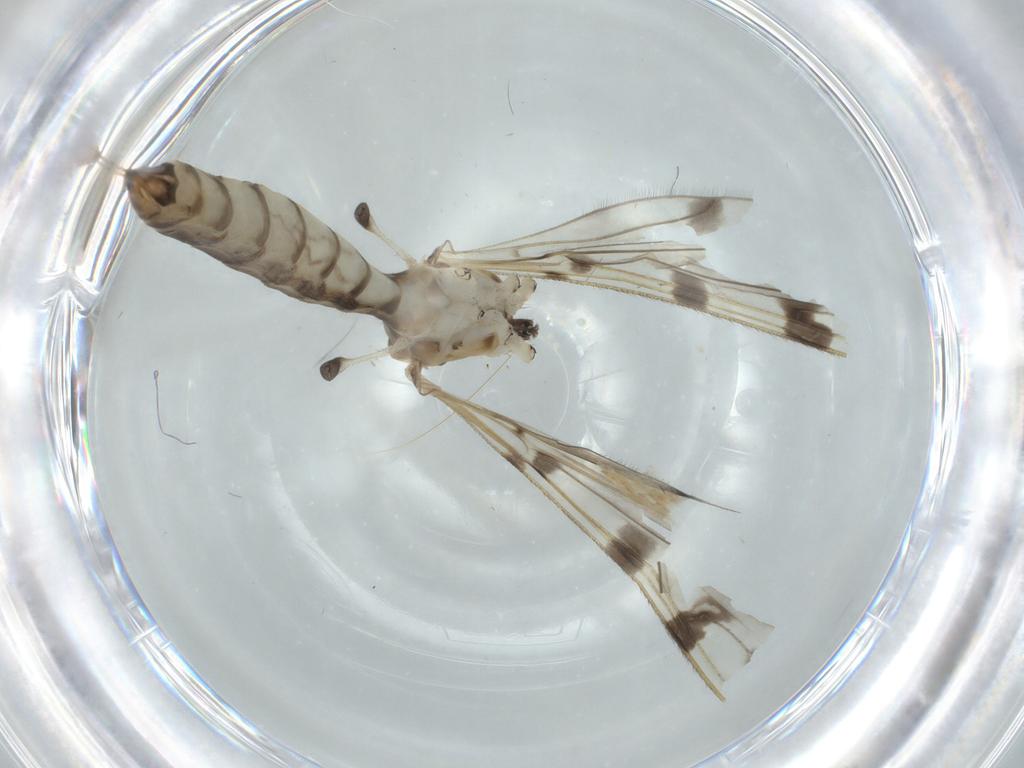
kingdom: Animalia
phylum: Arthropoda
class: Insecta
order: Diptera
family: Limoniidae
